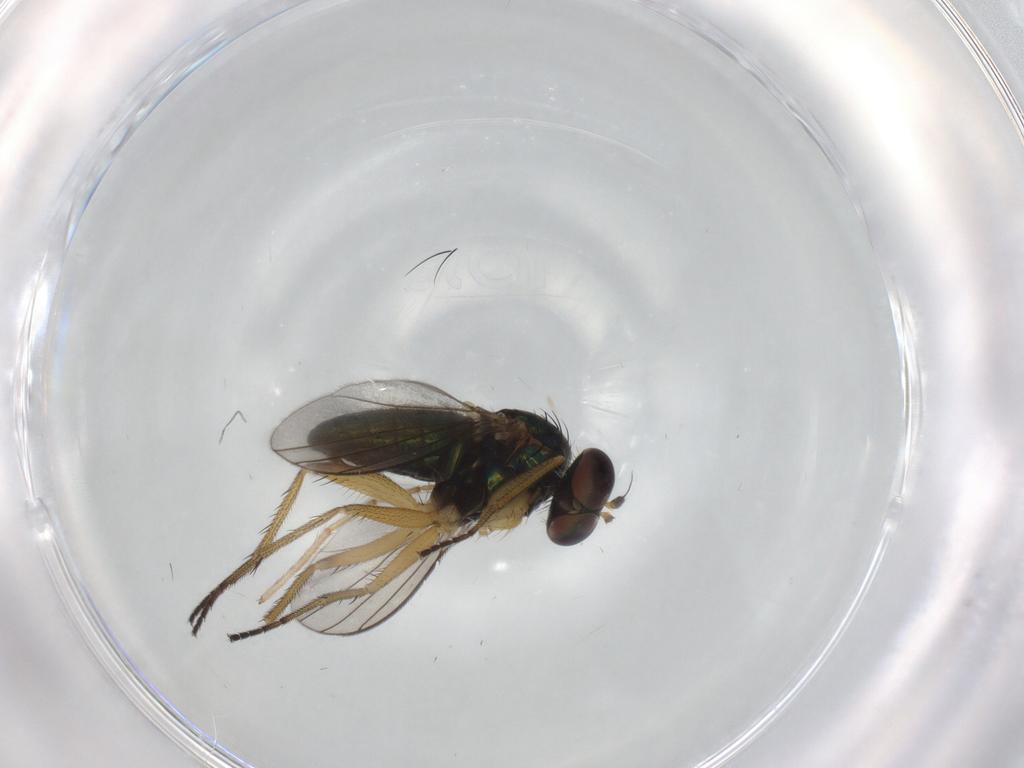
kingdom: Animalia
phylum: Arthropoda
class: Insecta
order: Diptera
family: Dolichopodidae
